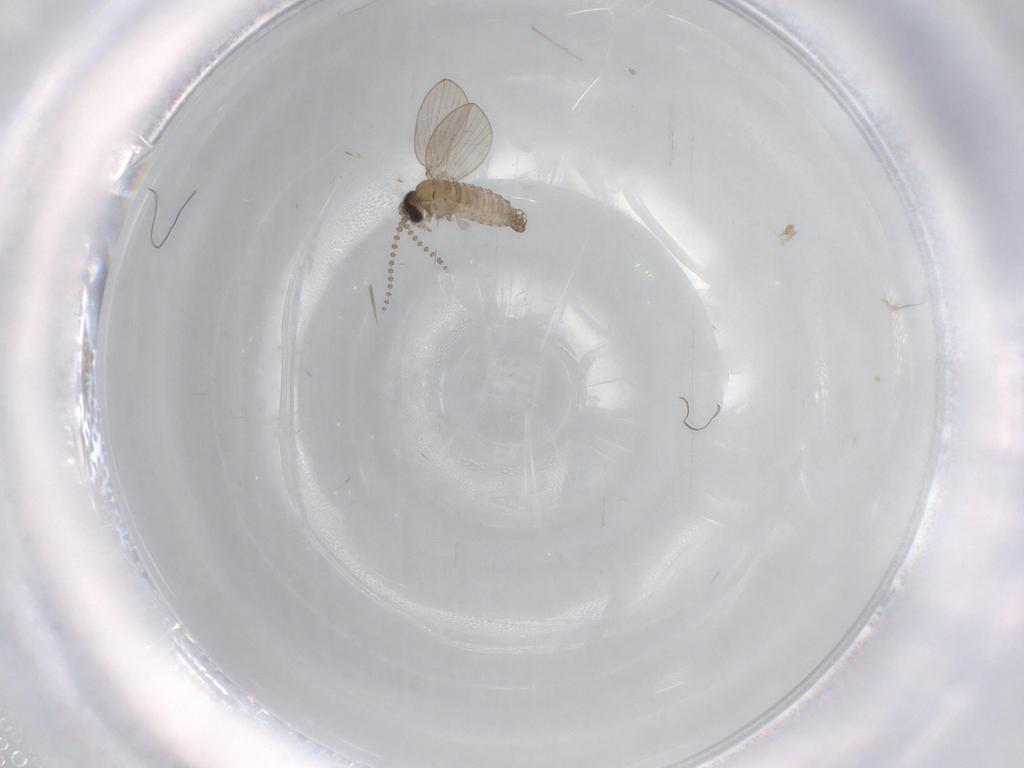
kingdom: Animalia
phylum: Arthropoda
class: Insecta
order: Diptera
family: Psychodidae
